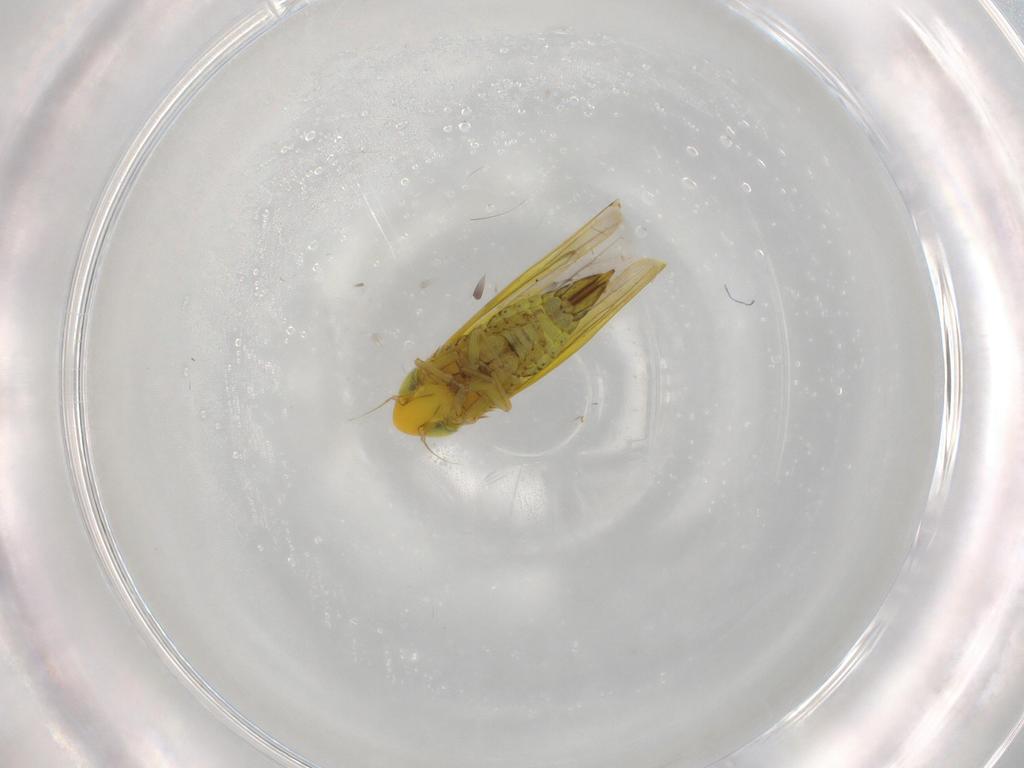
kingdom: Animalia
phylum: Arthropoda
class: Insecta
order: Hemiptera
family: Cicadellidae
